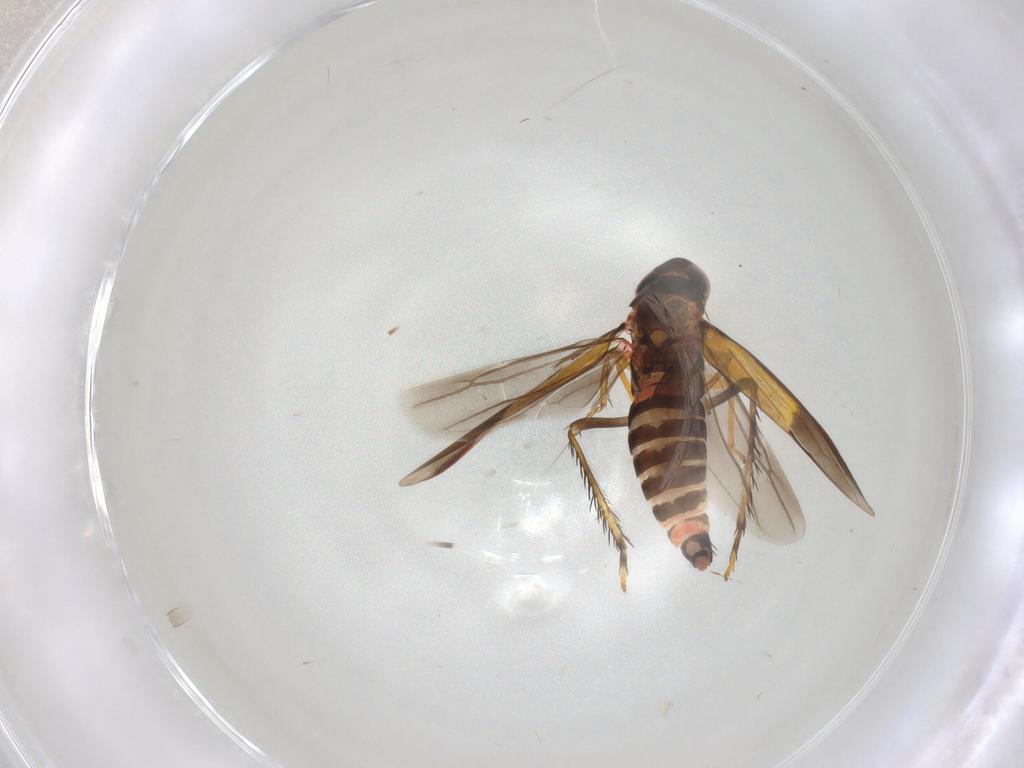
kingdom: Animalia
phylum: Arthropoda
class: Insecta
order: Hemiptera
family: Cicadellidae
